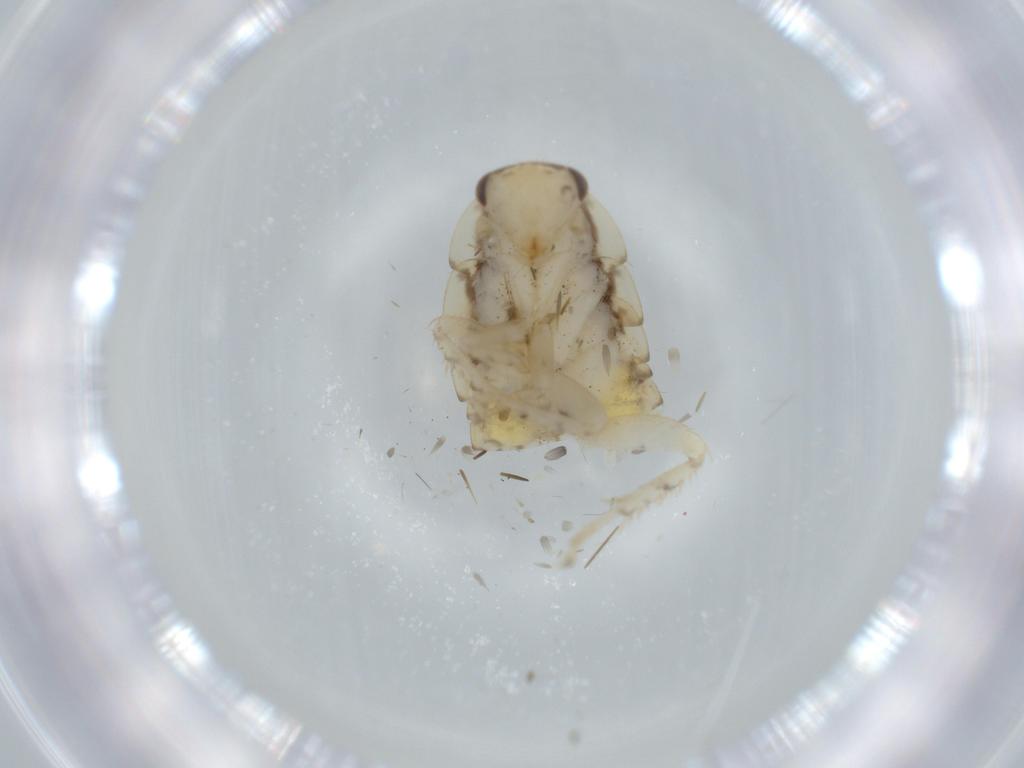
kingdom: Animalia
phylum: Arthropoda
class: Insecta
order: Blattodea
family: Ectobiidae
